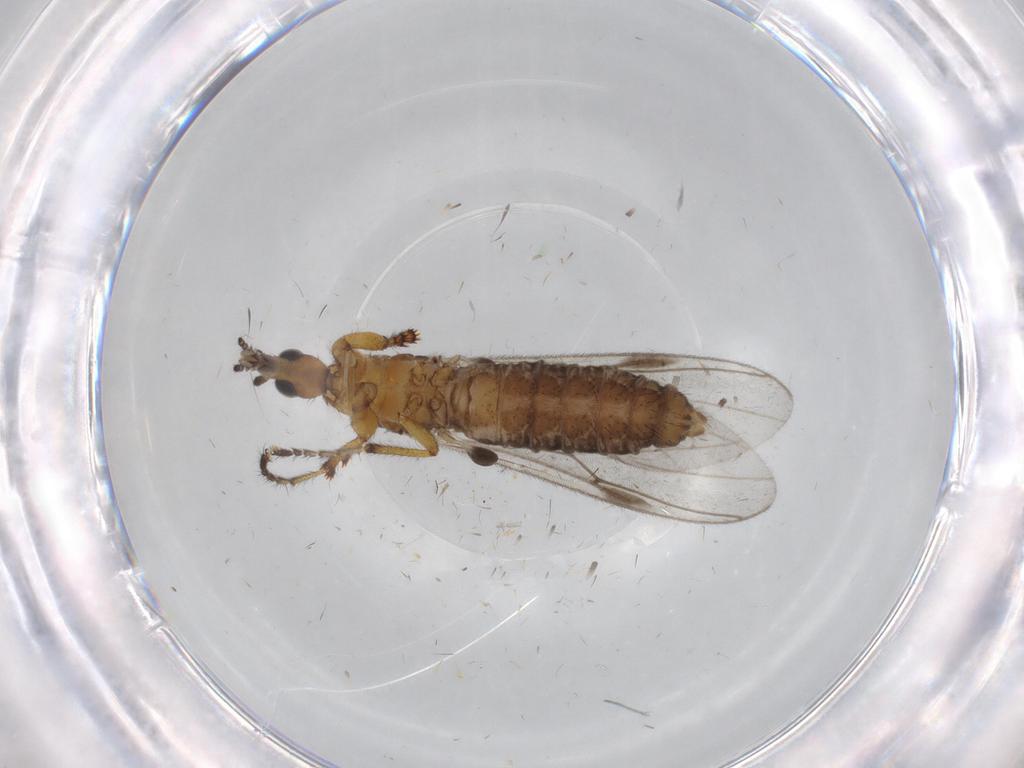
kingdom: Animalia
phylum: Arthropoda
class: Insecta
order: Diptera
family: Bibionidae
